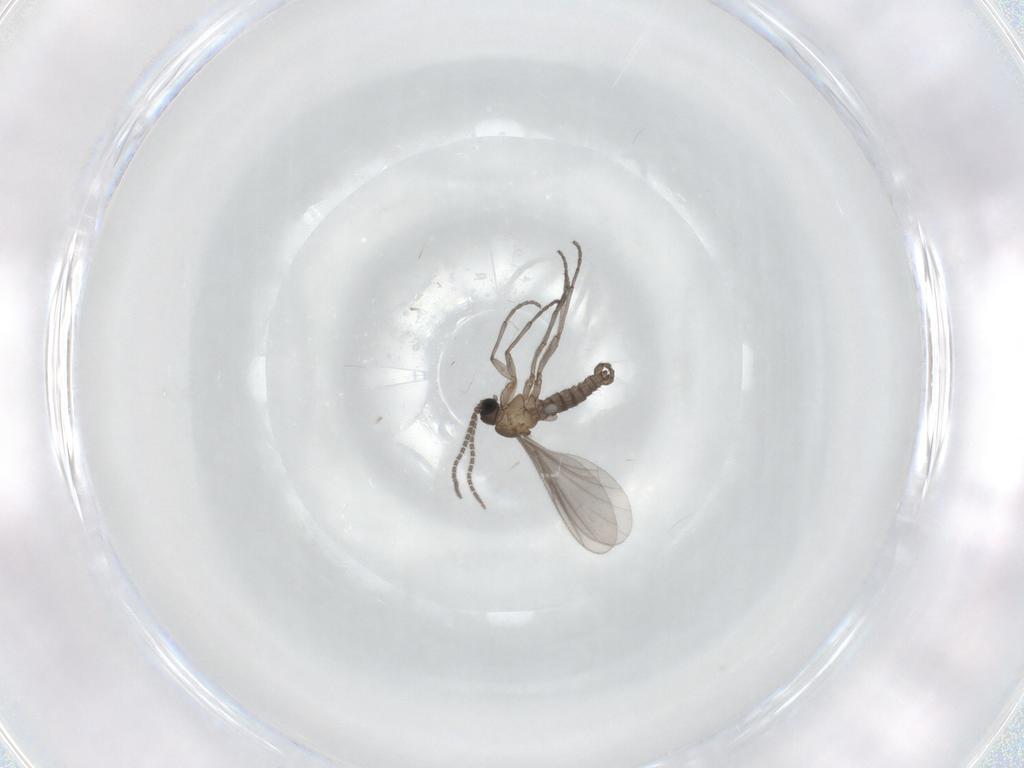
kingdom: Animalia
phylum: Arthropoda
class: Insecta
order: Diptera
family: Sciaridae
